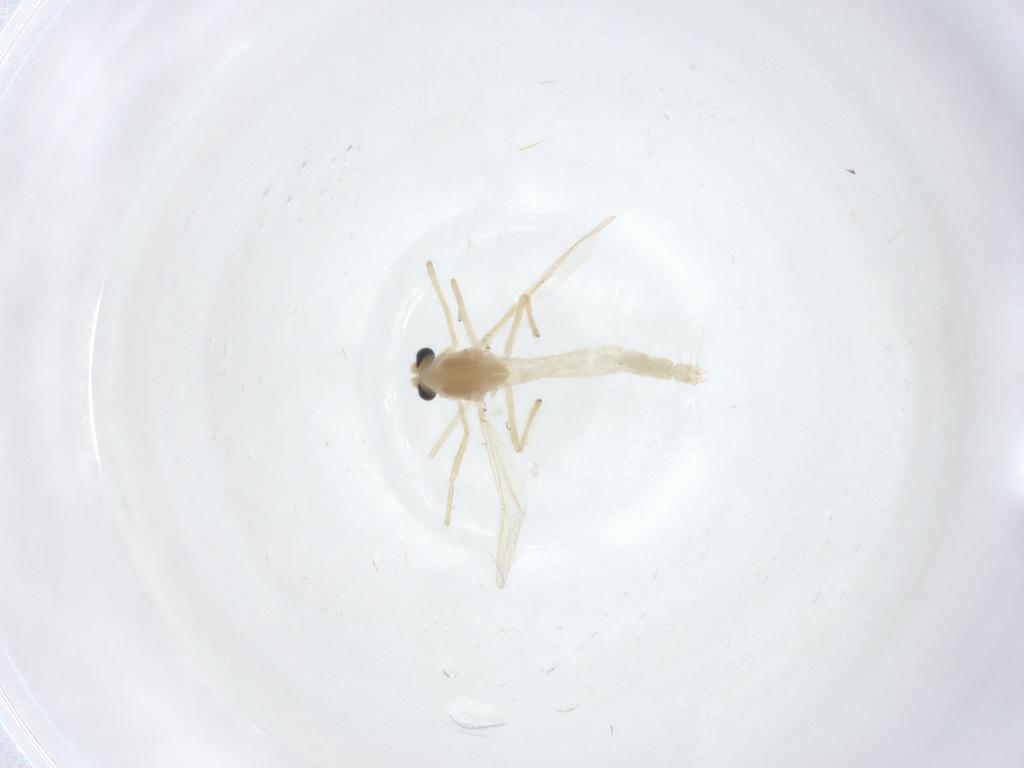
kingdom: Animalia
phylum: Arthropoda
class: Insecta
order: Diptera
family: Chironomidae
